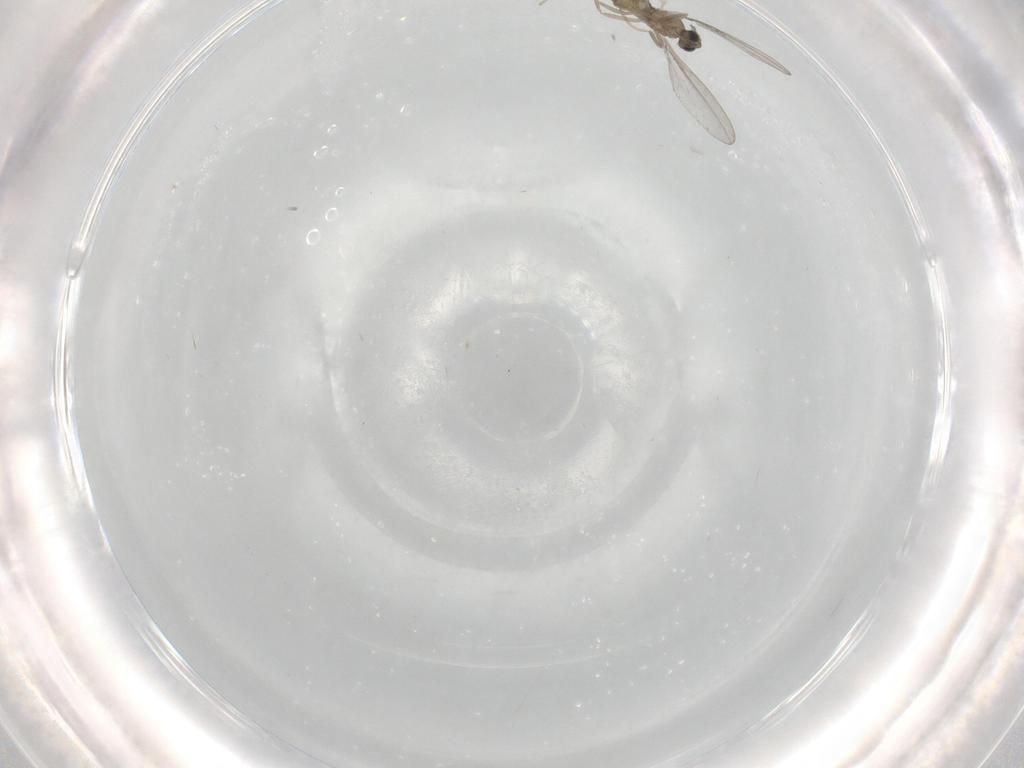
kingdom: Animalia
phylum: Arthropoda
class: Insecta
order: Diptera
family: Cecidomyiidae
